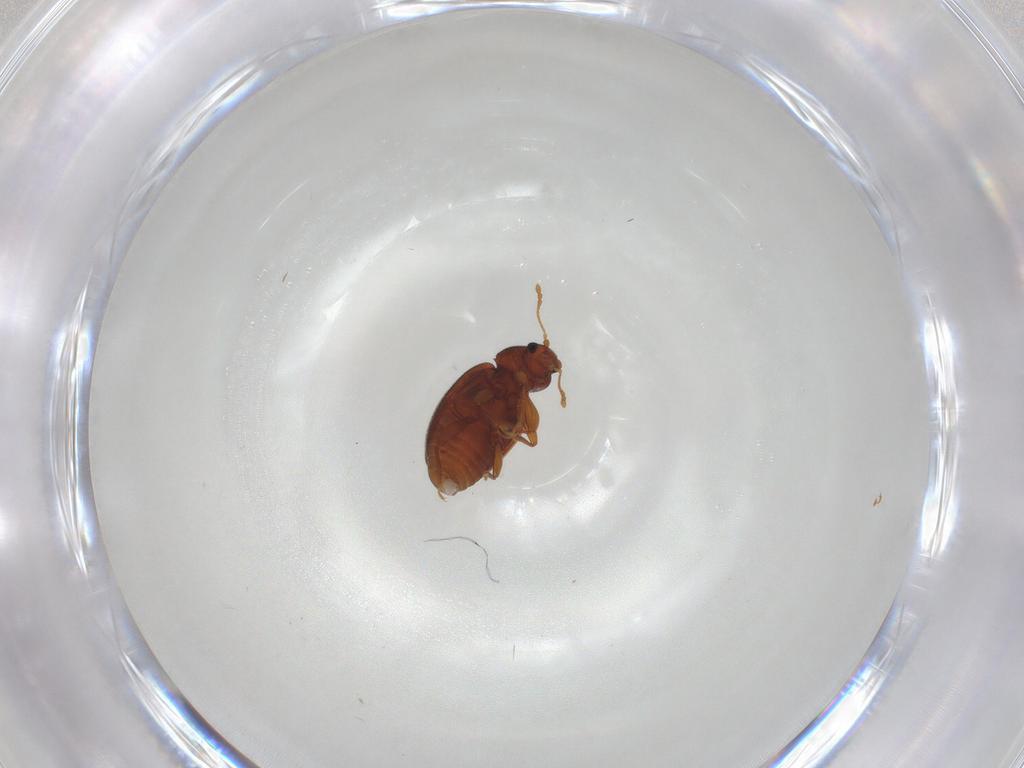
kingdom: Animalia
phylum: Arthropoda
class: Insecta
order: Coleoptera
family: Latridiidae
